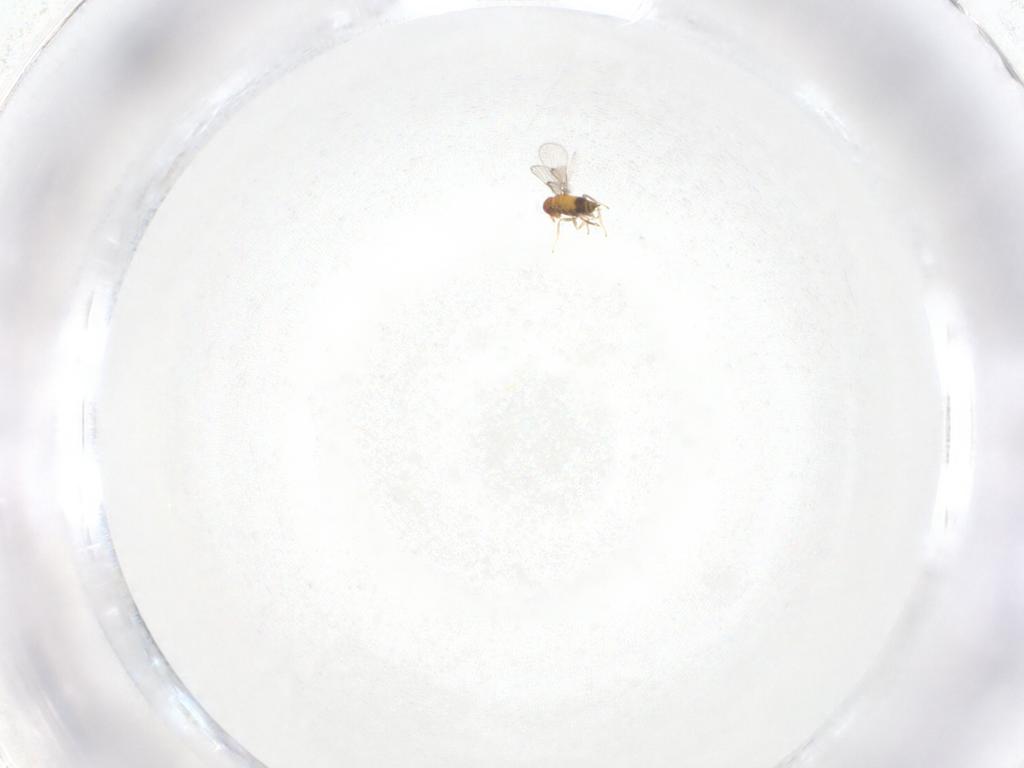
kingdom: Animalia
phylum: Arthropoda
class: Insecta
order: Hymenoptera
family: Trichogrammatidae
